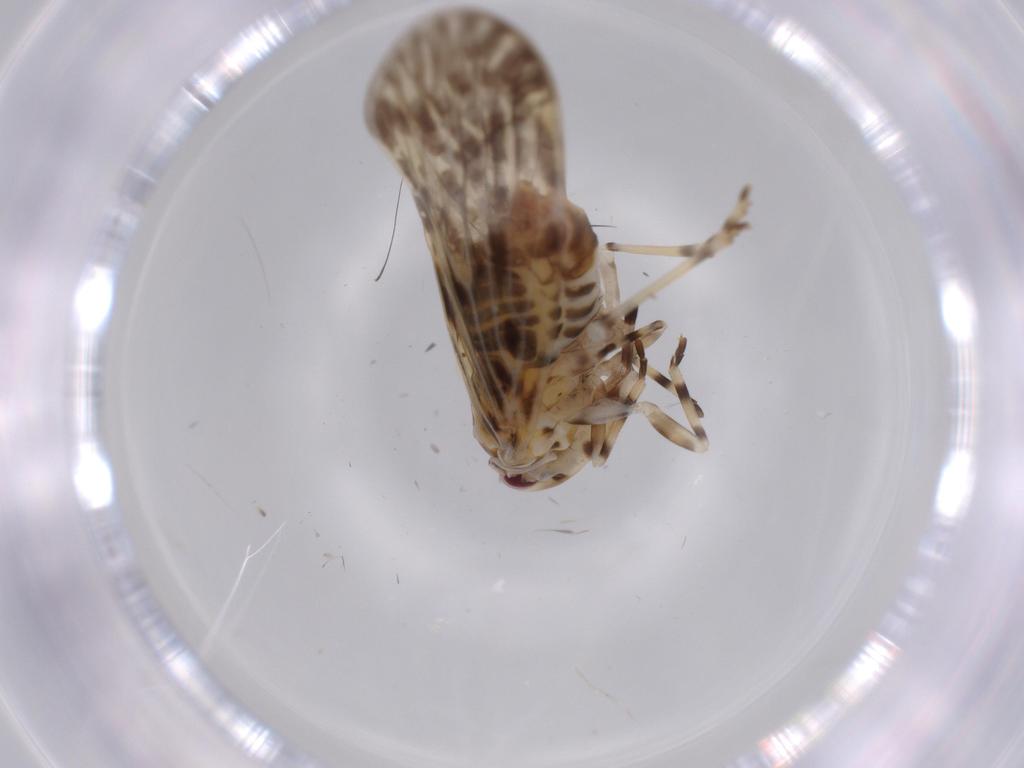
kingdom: Animalia
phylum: Arthropoda
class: Insecta
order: Hemiptera
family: Derbidae
